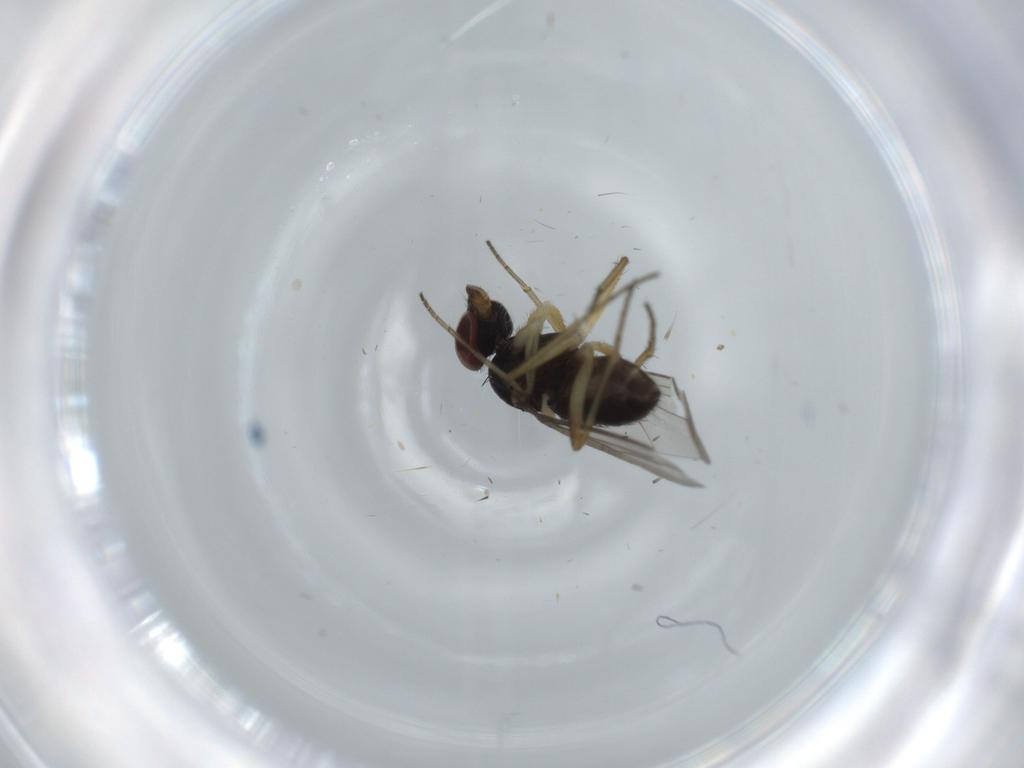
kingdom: Animalia
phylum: Arthropoda
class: Insecta
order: Diptera
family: Dolichopodidae
